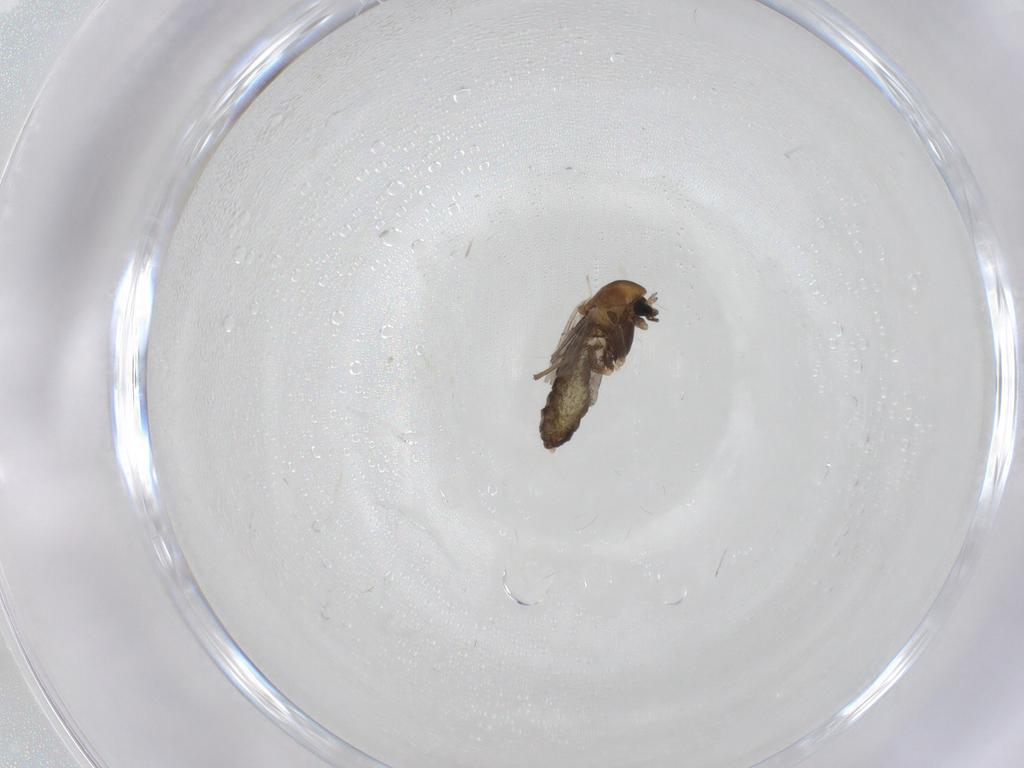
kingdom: Animalia
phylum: Arthropoda
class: Insecta
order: Diptera
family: Chironomidae
